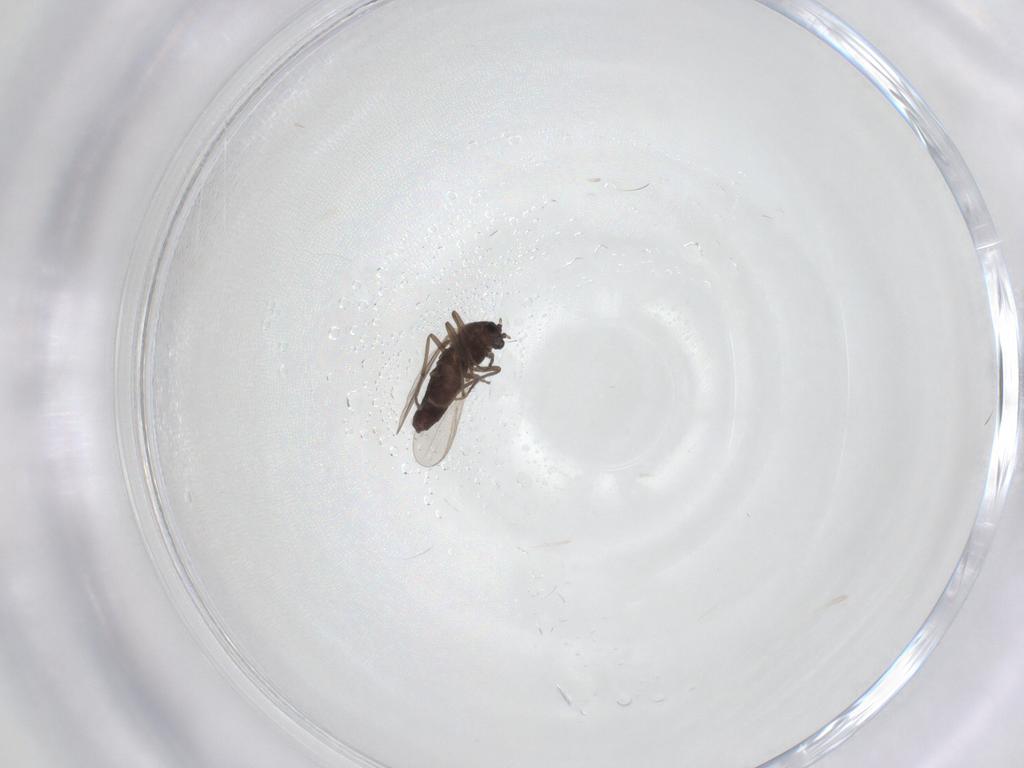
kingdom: Animalia
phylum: Arthropoda
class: Insecta
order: Diptera
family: Chironomidae
